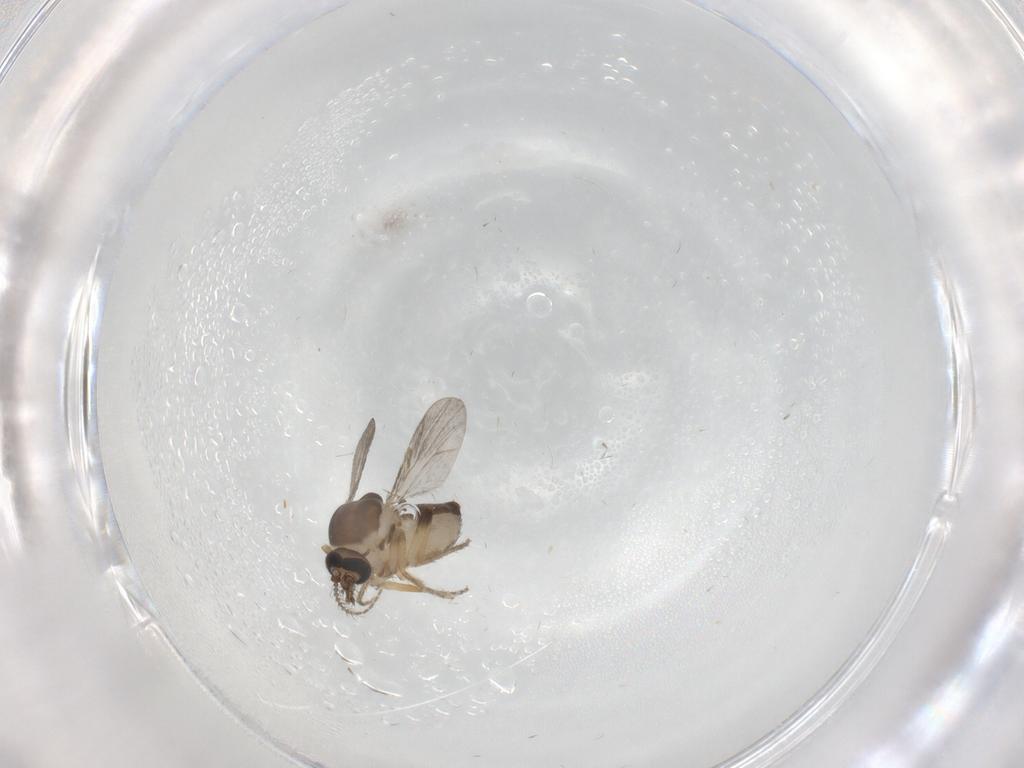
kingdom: Animalia
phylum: Arthropoda
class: Insecta
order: Diptera
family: Ceratopogonidae
